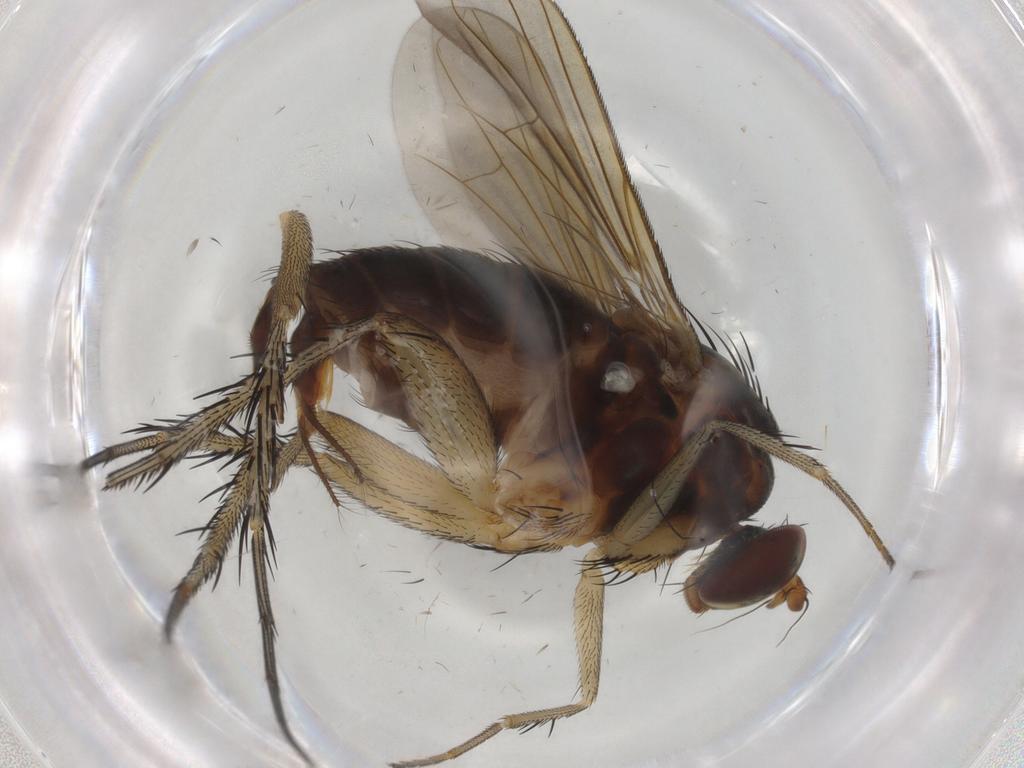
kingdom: Animalia
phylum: Arthropoda
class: Insecta
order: Diptera
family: Dolichopodidae
